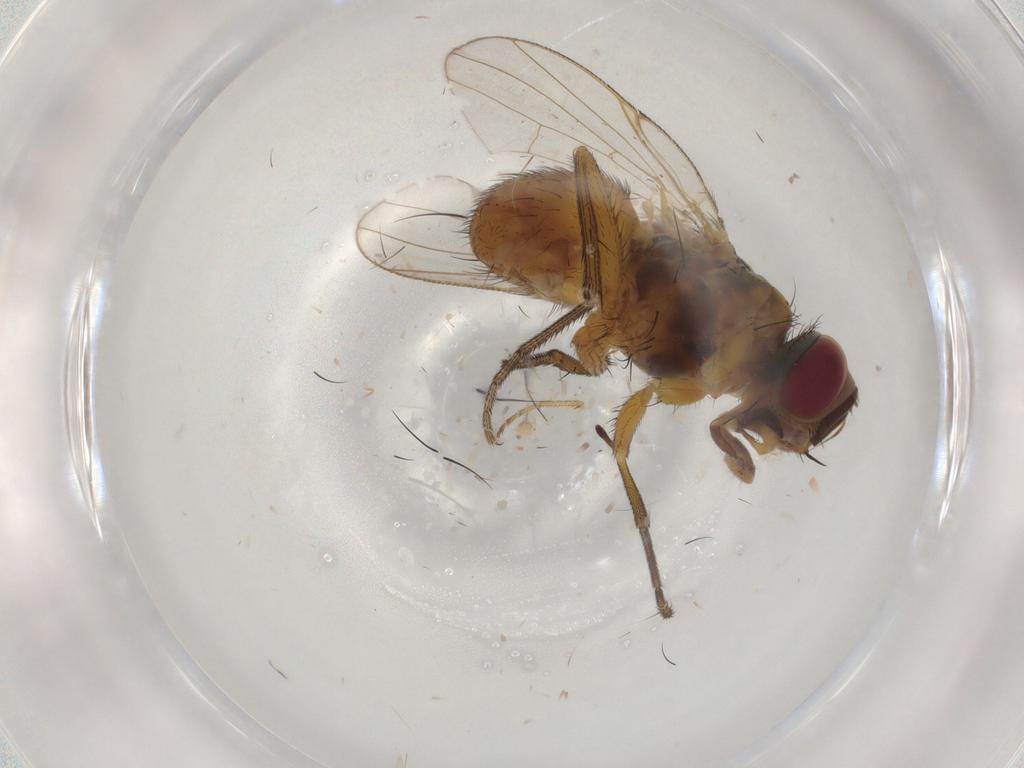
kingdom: Animalia
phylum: Arthropoda
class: Insecta
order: Diptera
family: Muscidae
